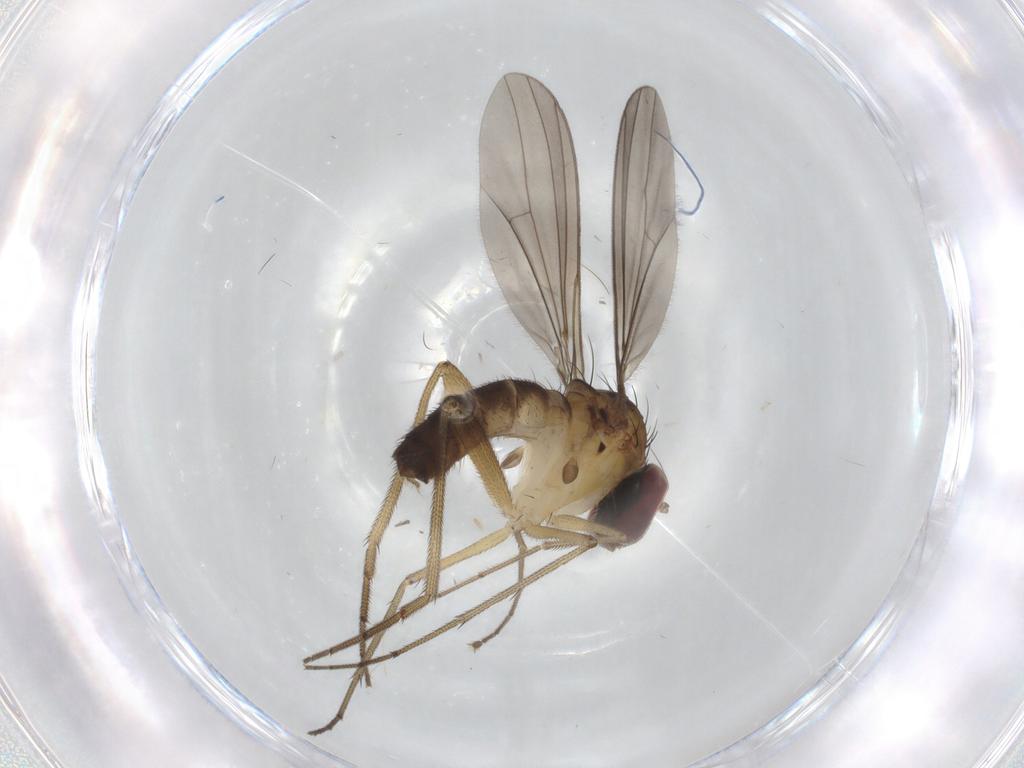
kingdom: Animalia
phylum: Arthropoda
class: Insecta
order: Diptera
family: Dolichopodidae
